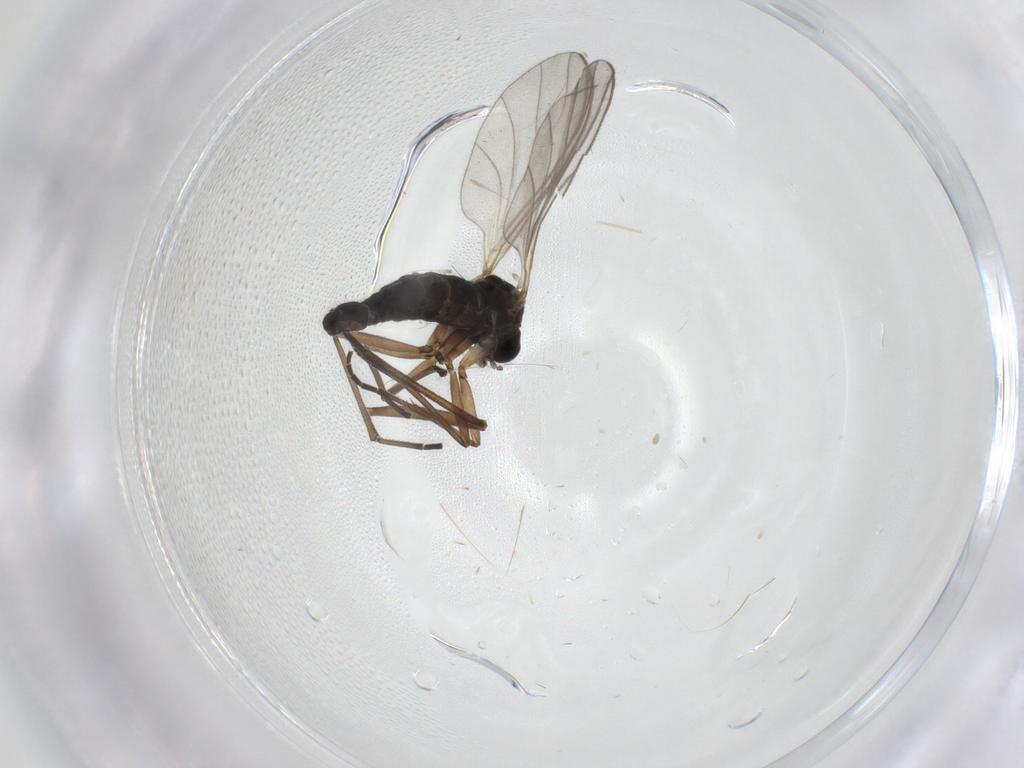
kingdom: Animalia
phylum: Arthropoda
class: Insecta
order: Diptera
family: Sciaridae
